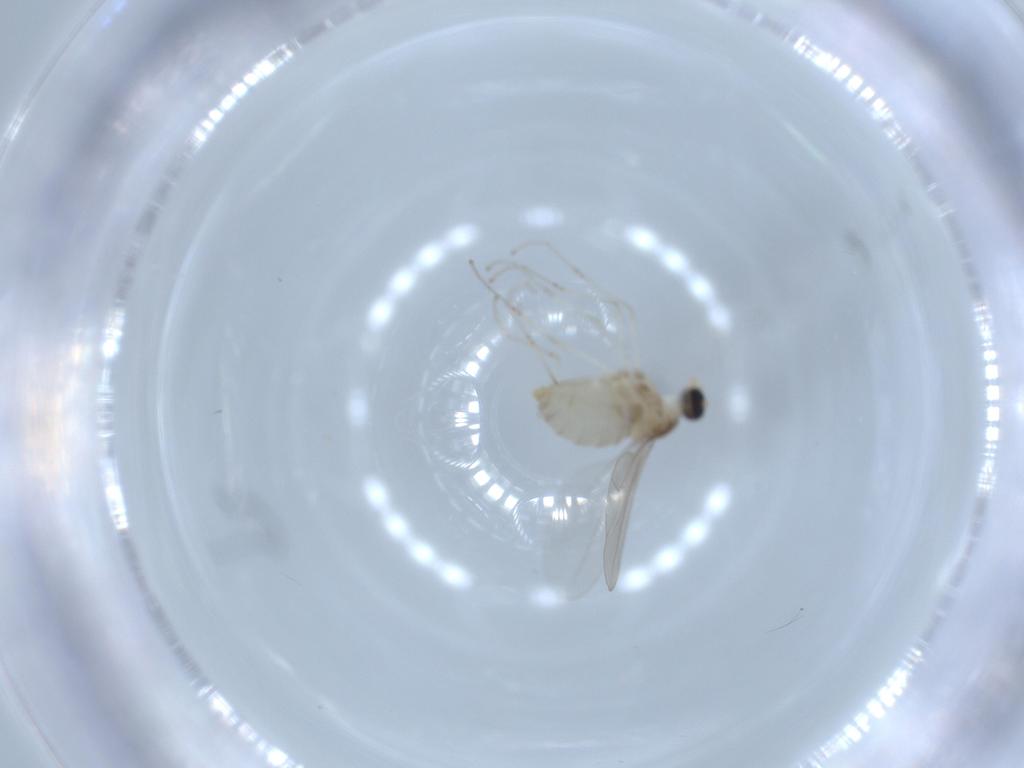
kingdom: Animalia
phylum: Arthropoda
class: Insecta
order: Diptera
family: Cecidomyiidae
